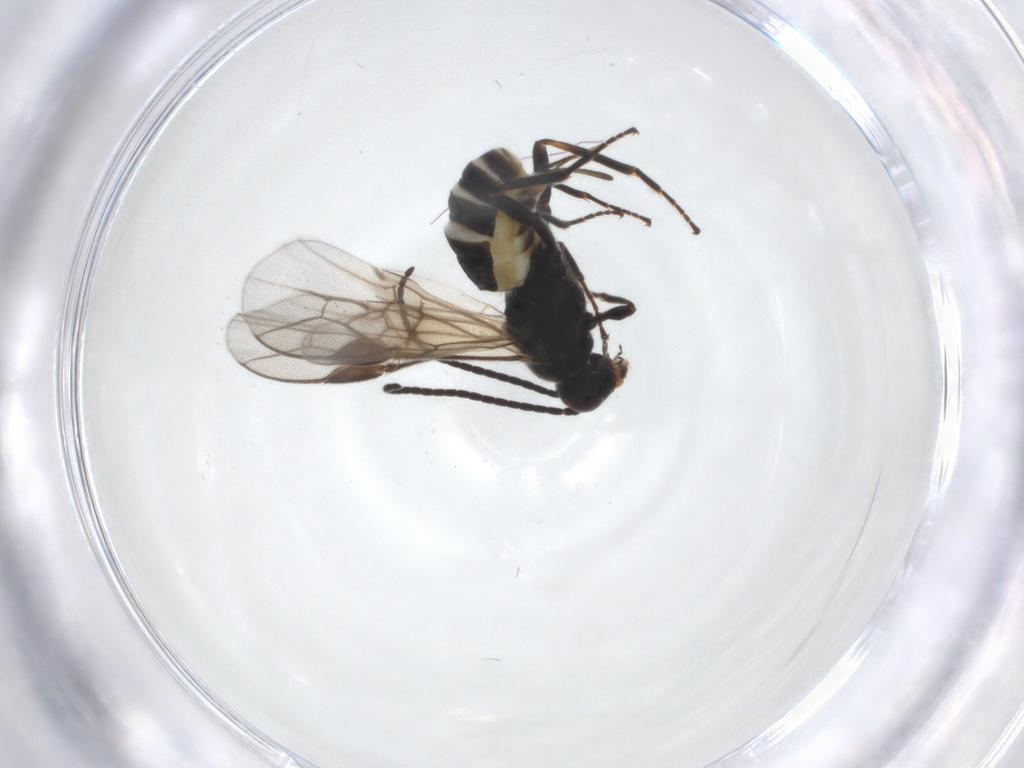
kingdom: Animalia
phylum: Arthropoda
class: Insecta
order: Hymenoptera
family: Braconidae
